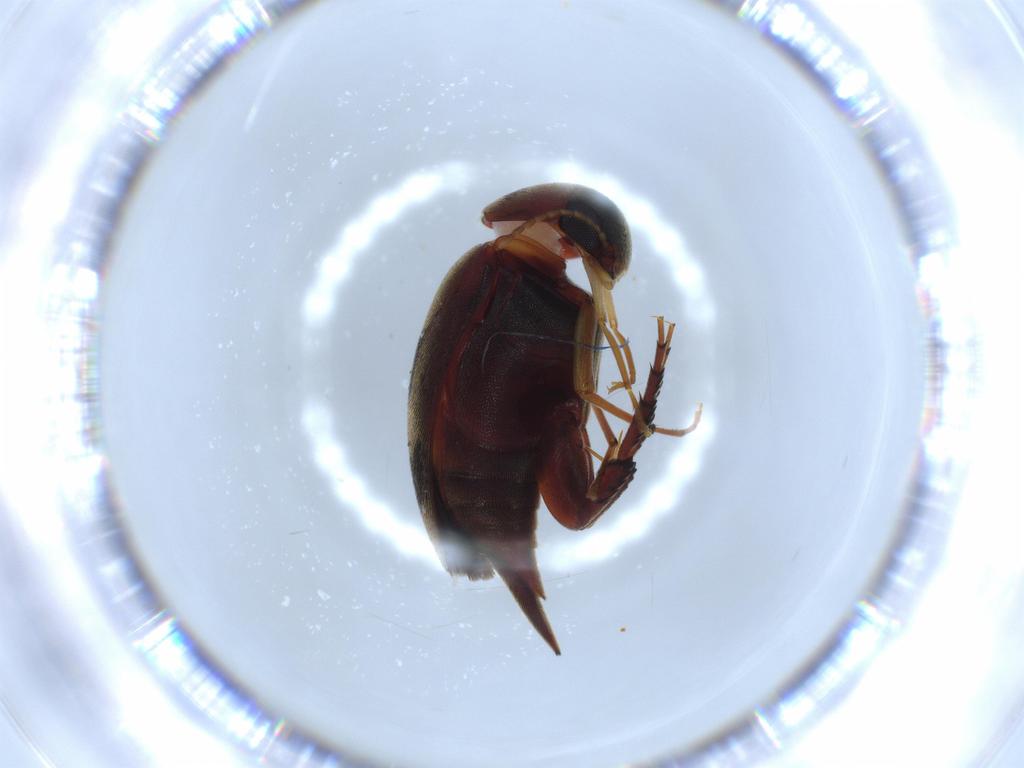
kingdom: Animalia
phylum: Arthropoda
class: Insecta
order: Coleoptera
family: Mordellidae
